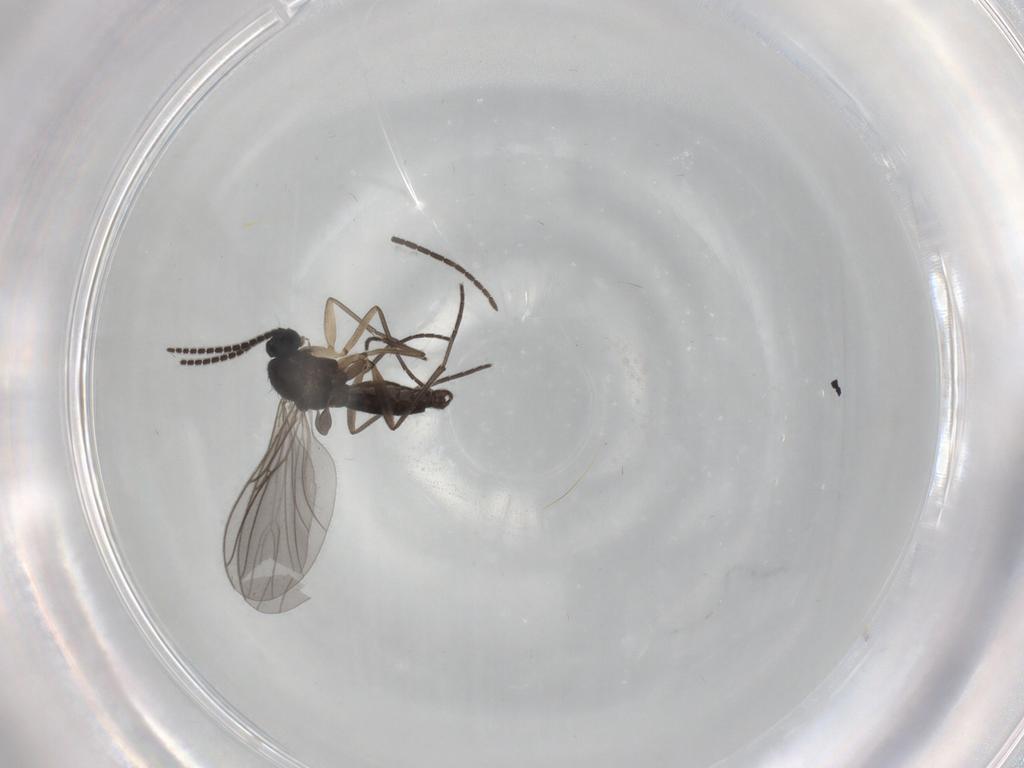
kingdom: Animalia
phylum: Arthropoda
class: Insecta
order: Diptera
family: Sciaridae
